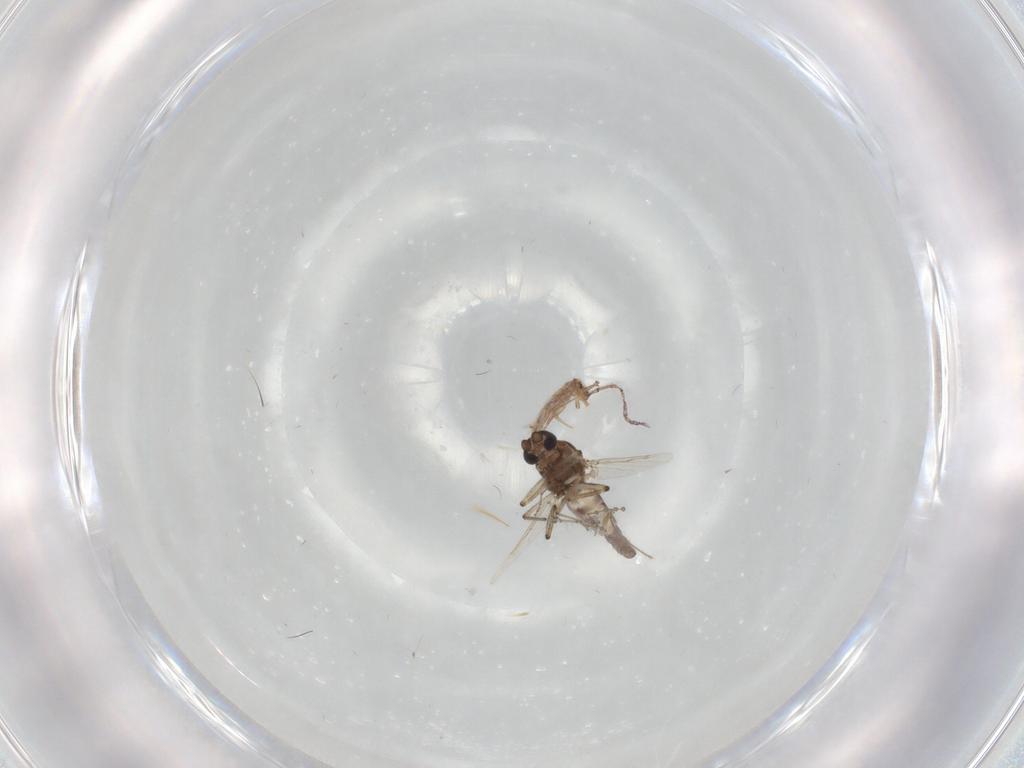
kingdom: Animalia
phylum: Arthropoda
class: Insecta
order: Diptera
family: Ceratopogonidae
